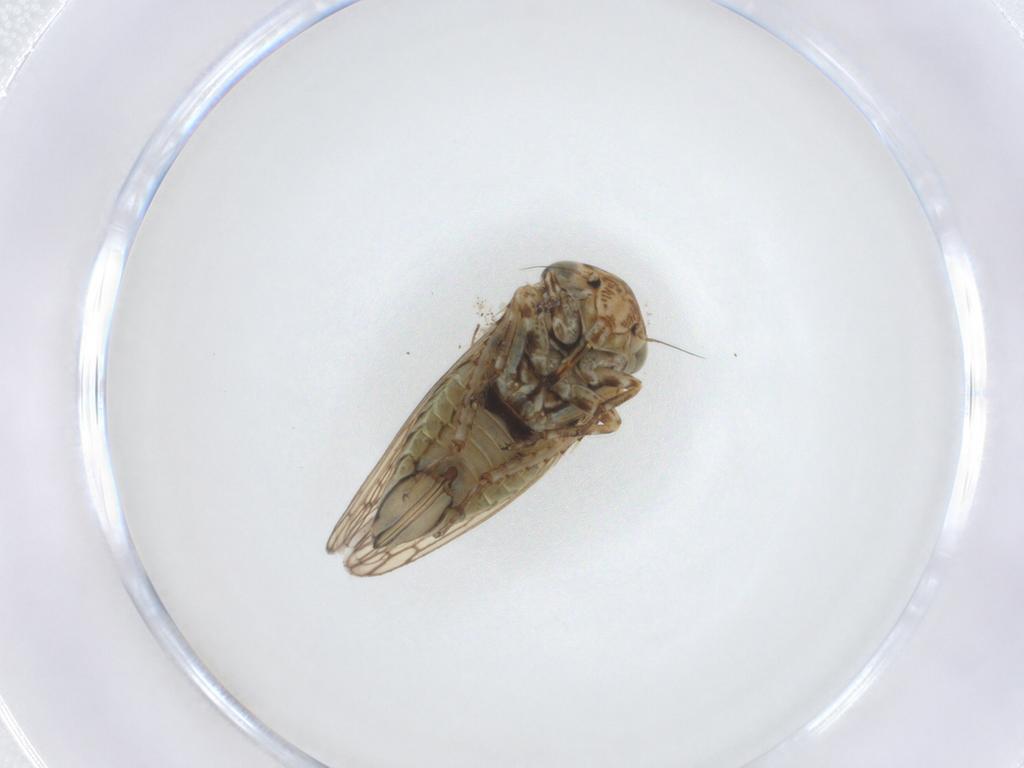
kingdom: Animalia
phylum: Arthropoda
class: Insecta
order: Hemiptera
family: Cicadellidae
